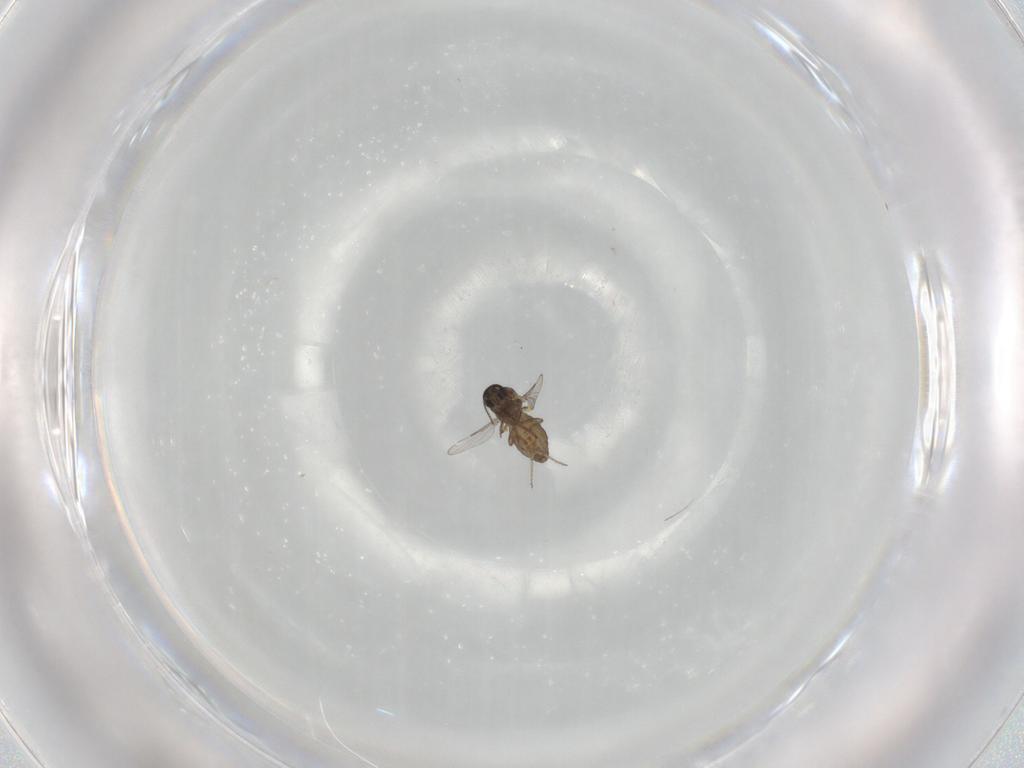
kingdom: Animalia
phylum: Arthropoda
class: Insecta
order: Diptera
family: Ceratopogonidae
